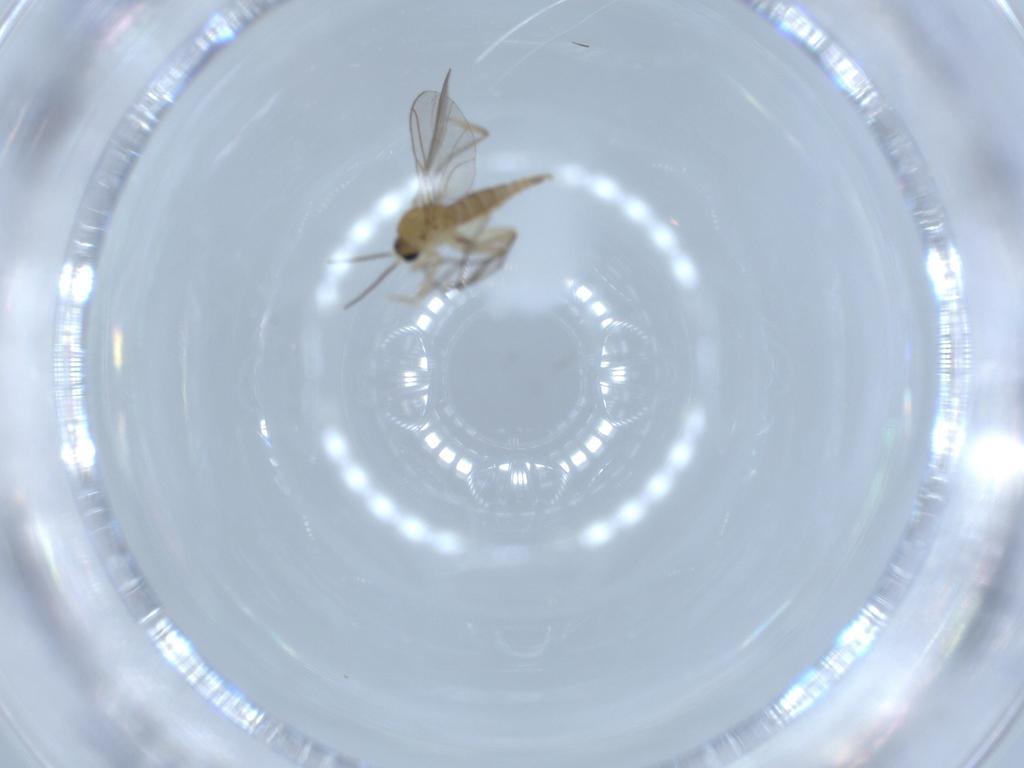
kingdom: Animalia
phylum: Arthropoda
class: Insecta
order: Diptera
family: Sciaridae
